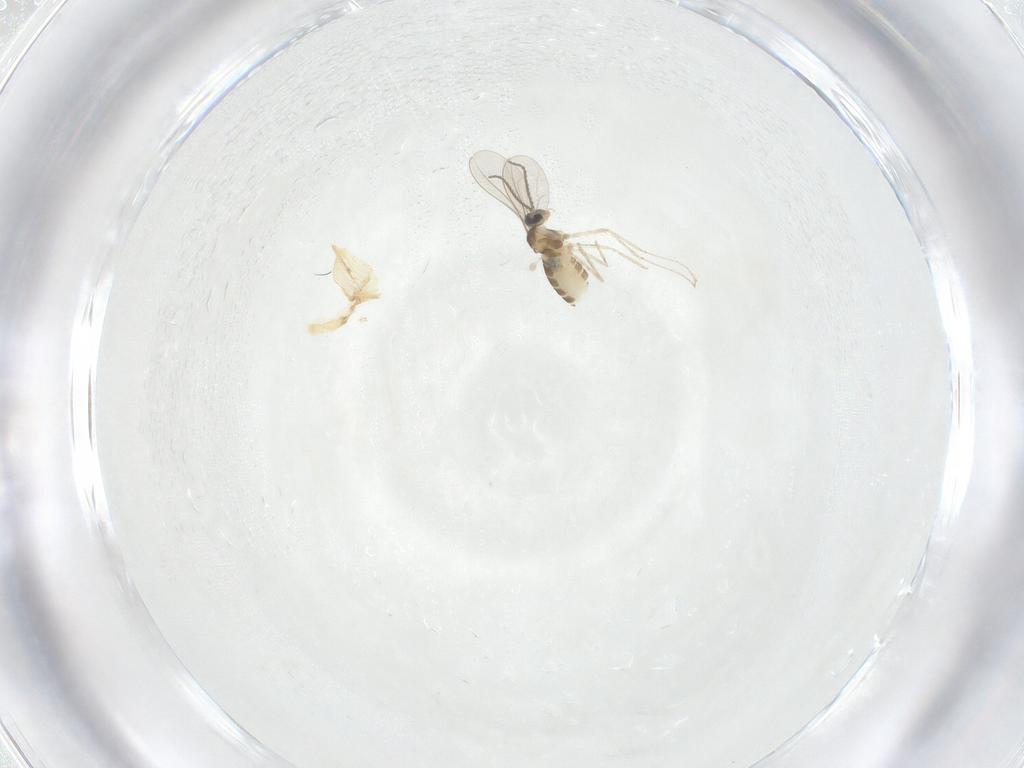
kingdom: Animalia
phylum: Arthropoda
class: Insecta
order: Diptera
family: Cecidomyiidae
